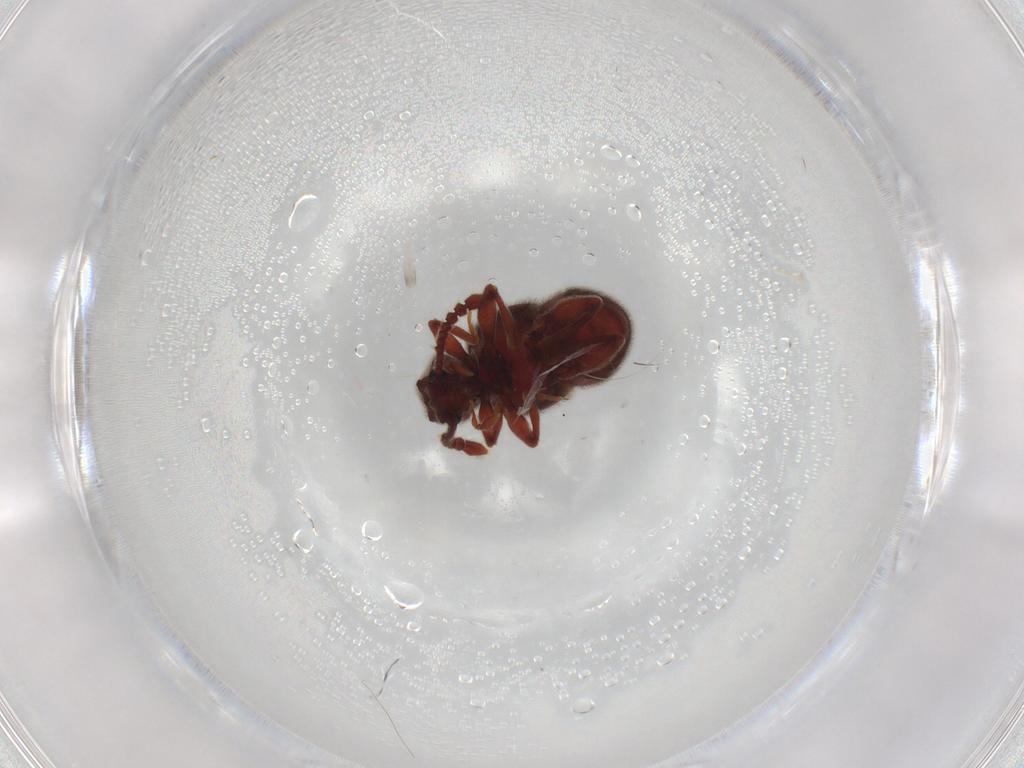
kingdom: Animalia
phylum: Arthropoda
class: Insecta
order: Coleoptera
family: Staphylinidae
